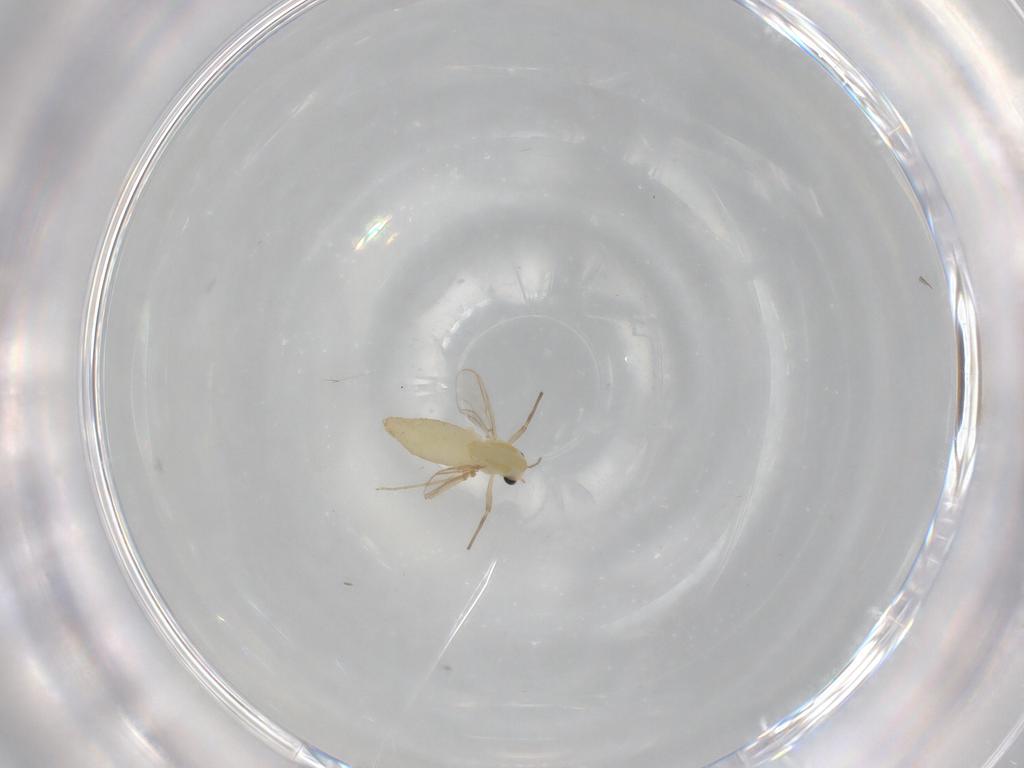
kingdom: Animalia
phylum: Arthropoda
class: Insecta
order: Diptera
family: Chironomidae
